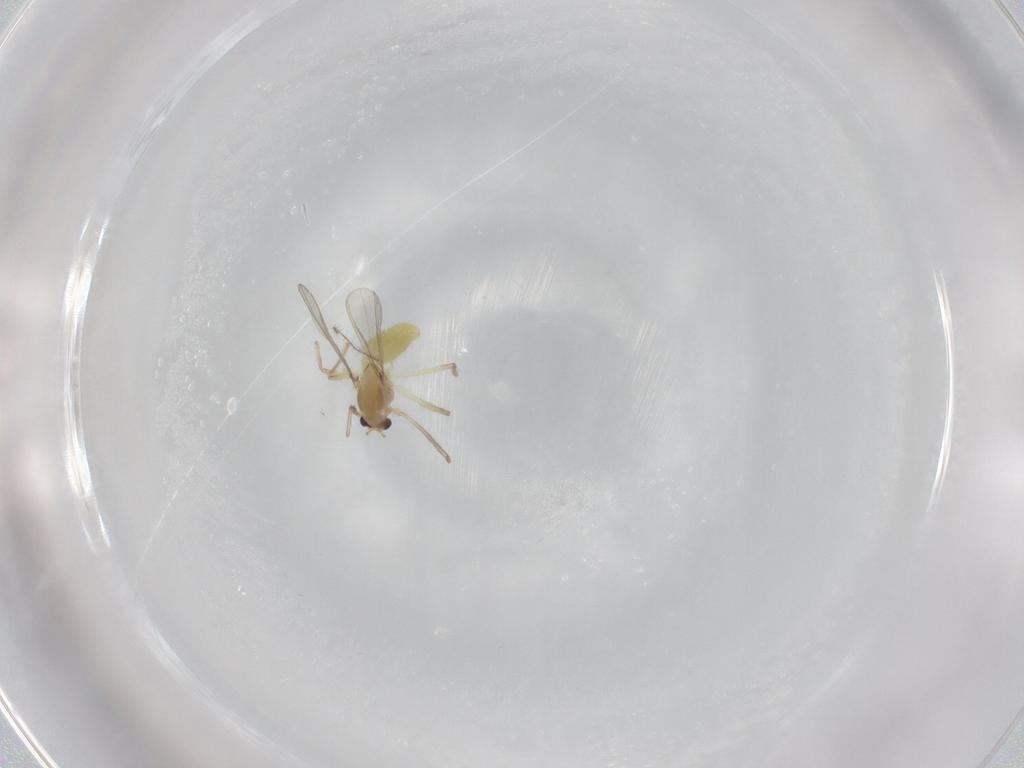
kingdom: Animalia
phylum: Arthropoda
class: Insecta
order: Diptera
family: Chironomidae
